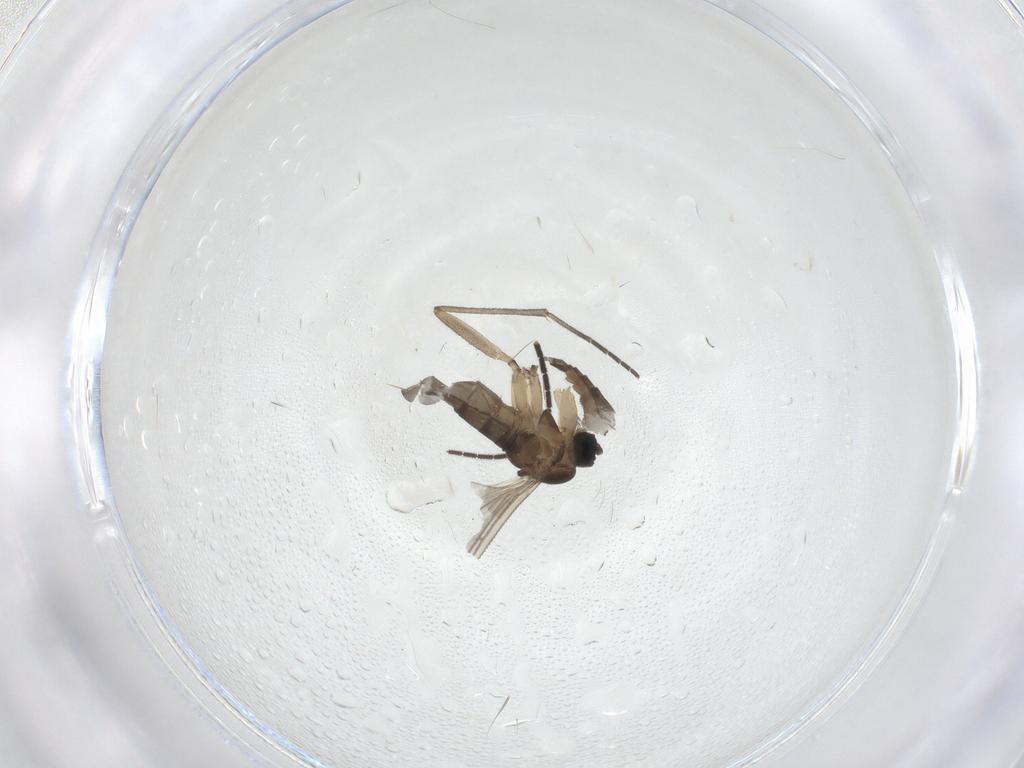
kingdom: Animalia
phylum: Arthropoda
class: Insecta
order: Diptera
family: Sciaridae
